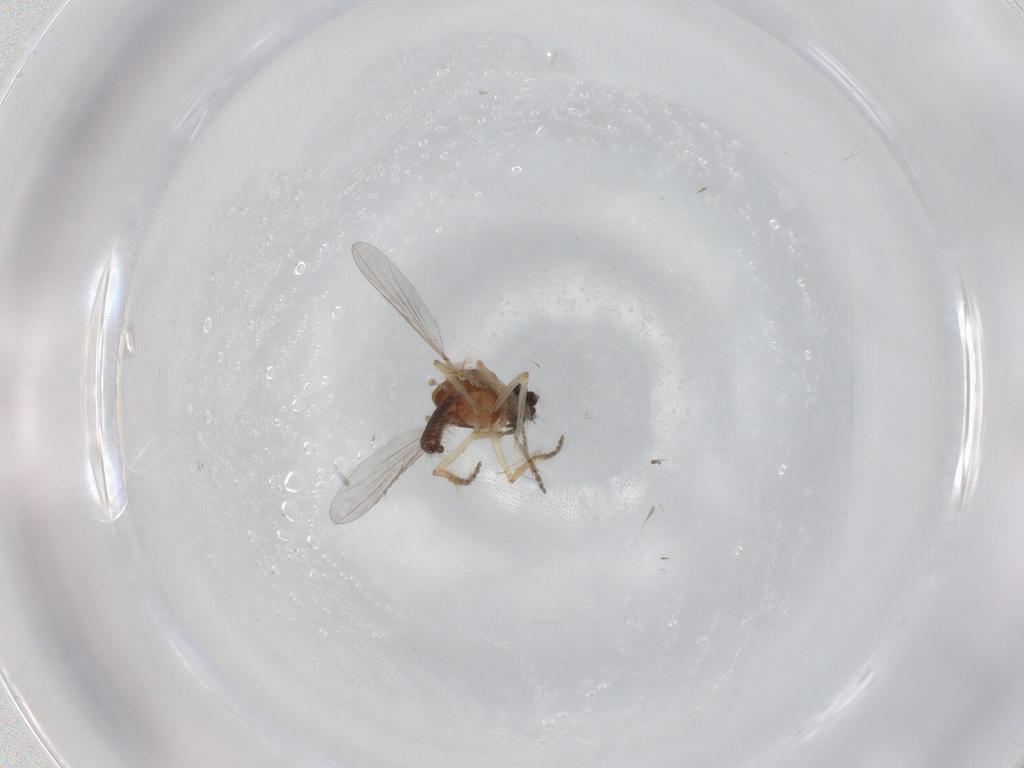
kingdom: Animalia
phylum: Arthropoda
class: Insecta
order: Diptera
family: Ceratopogonidae
